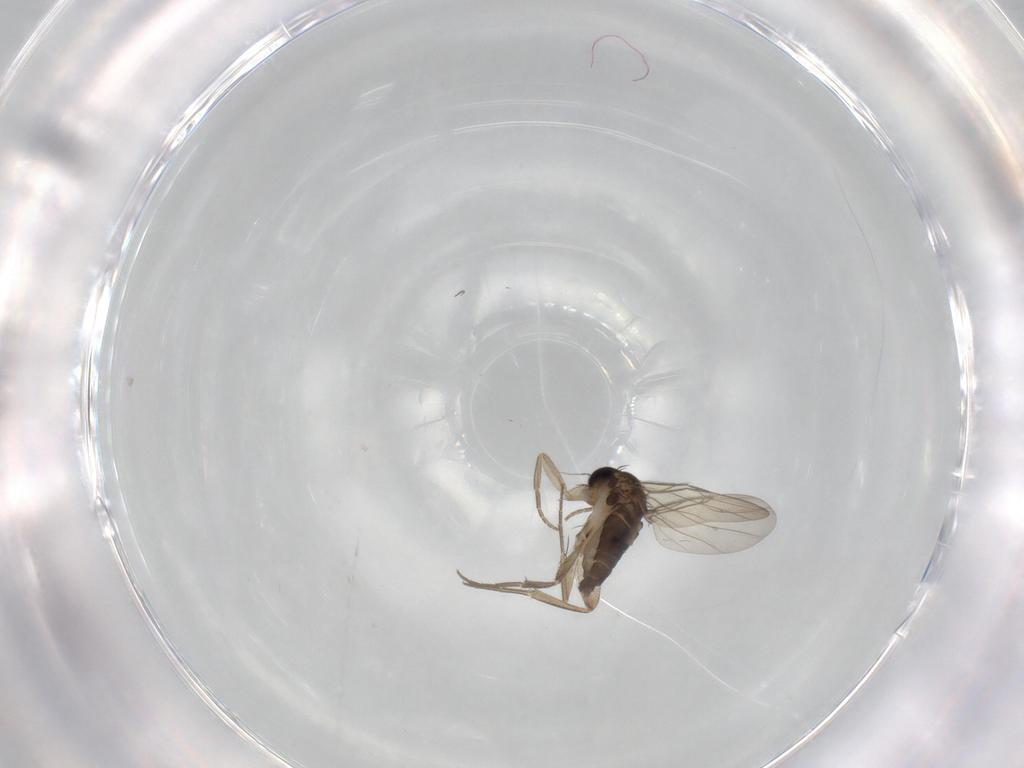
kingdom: Animalia
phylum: Arthropoda
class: Insecta
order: Diptera
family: Phoridae
